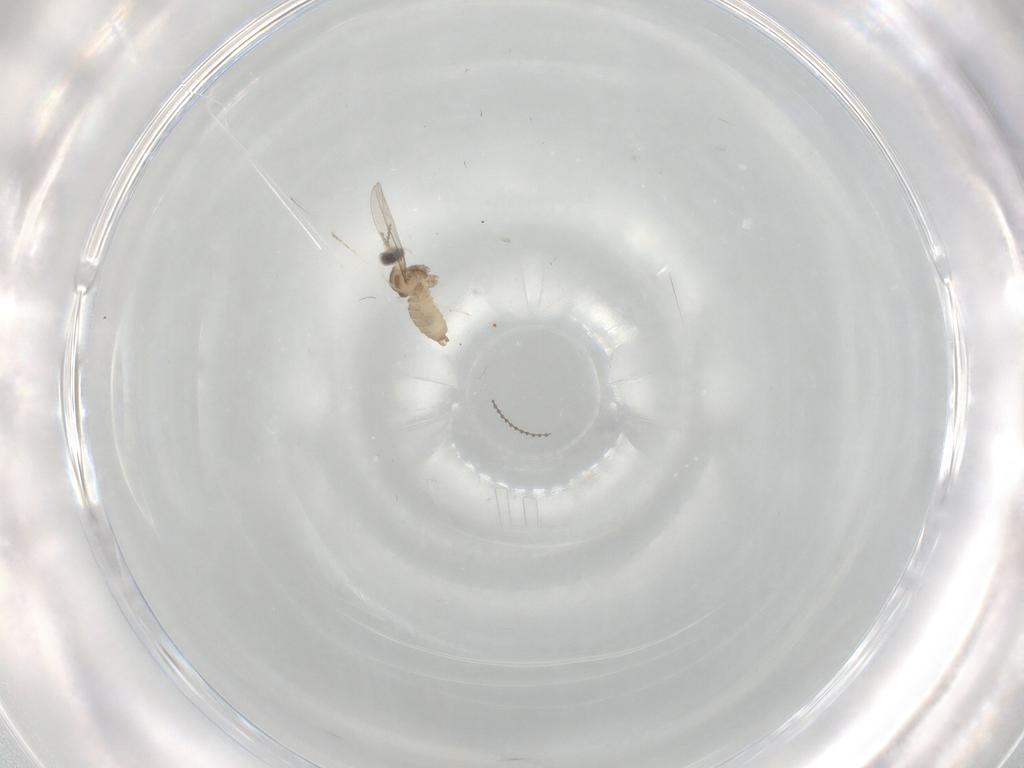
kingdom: Animalia
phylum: Arthropoda
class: Insecta
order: Diptera
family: Cecidomyiidae
